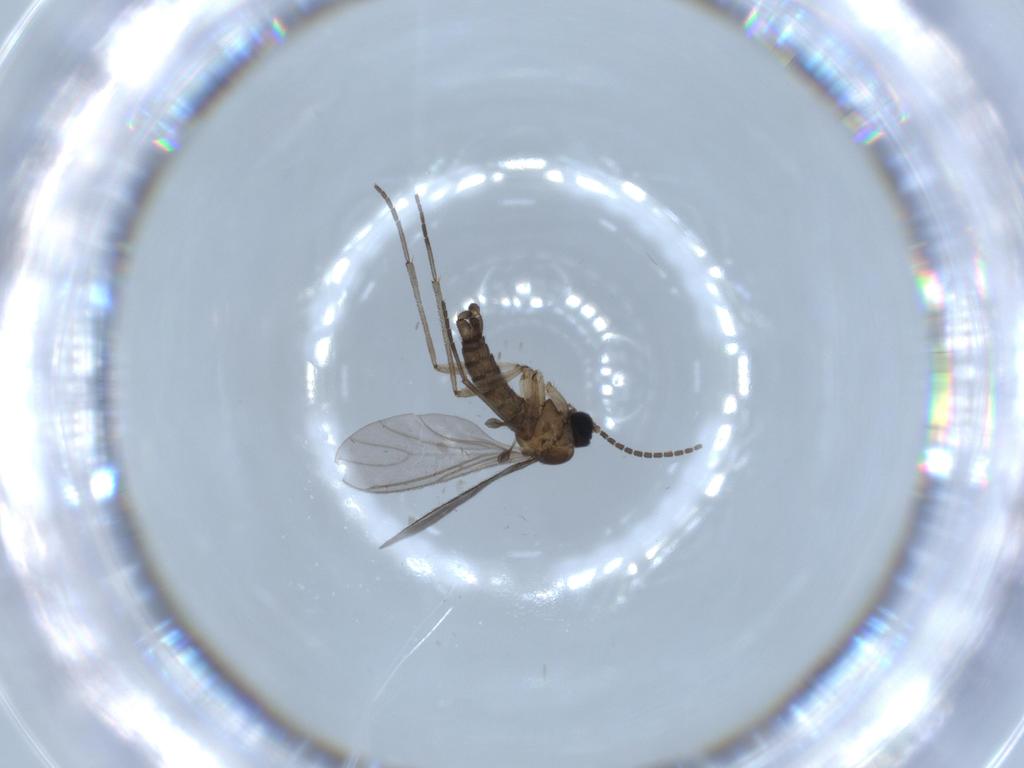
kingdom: Animalia
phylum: Arthropoda
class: Insecta
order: Diptera
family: Sciaridae
